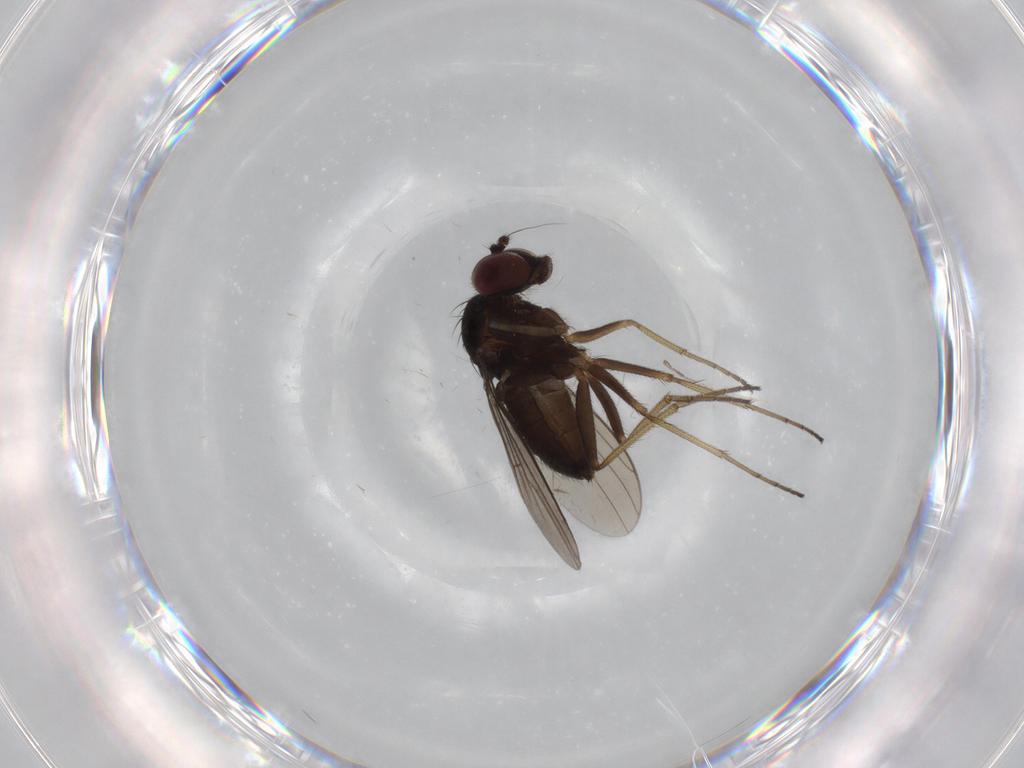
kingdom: Animalia
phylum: Arthropoda
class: Insecta
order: Diptera
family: Dolichopodidae
